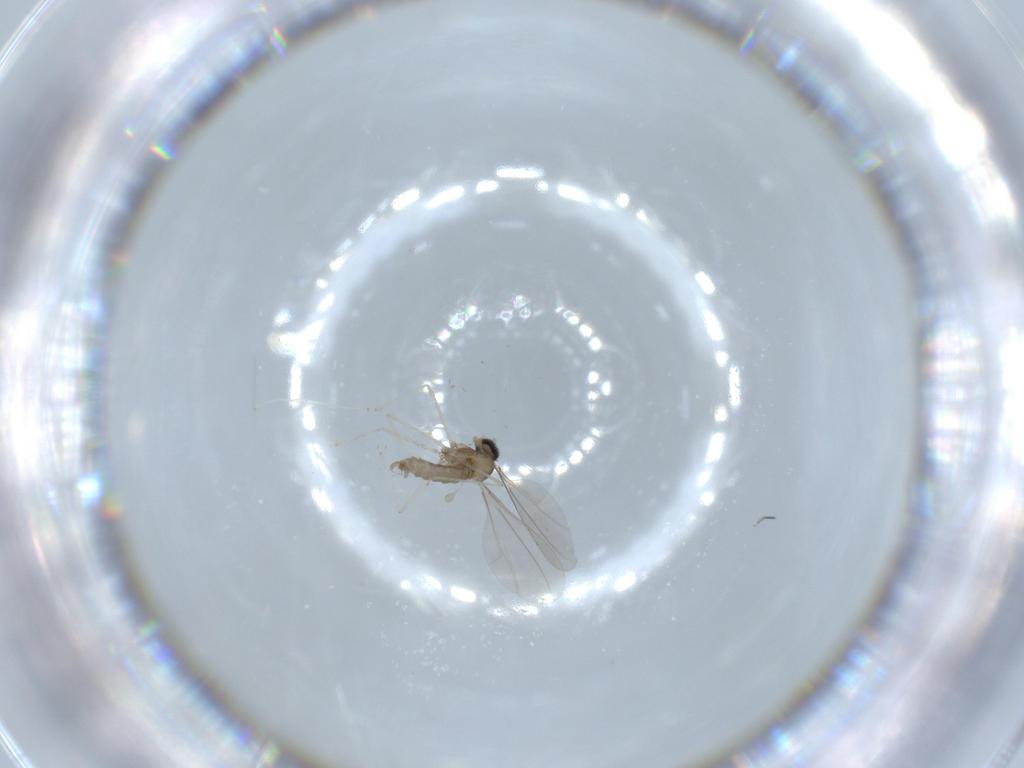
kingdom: Animalia
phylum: Arthropoda
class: Insecta
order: Diptera
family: Cecidomyiidae
